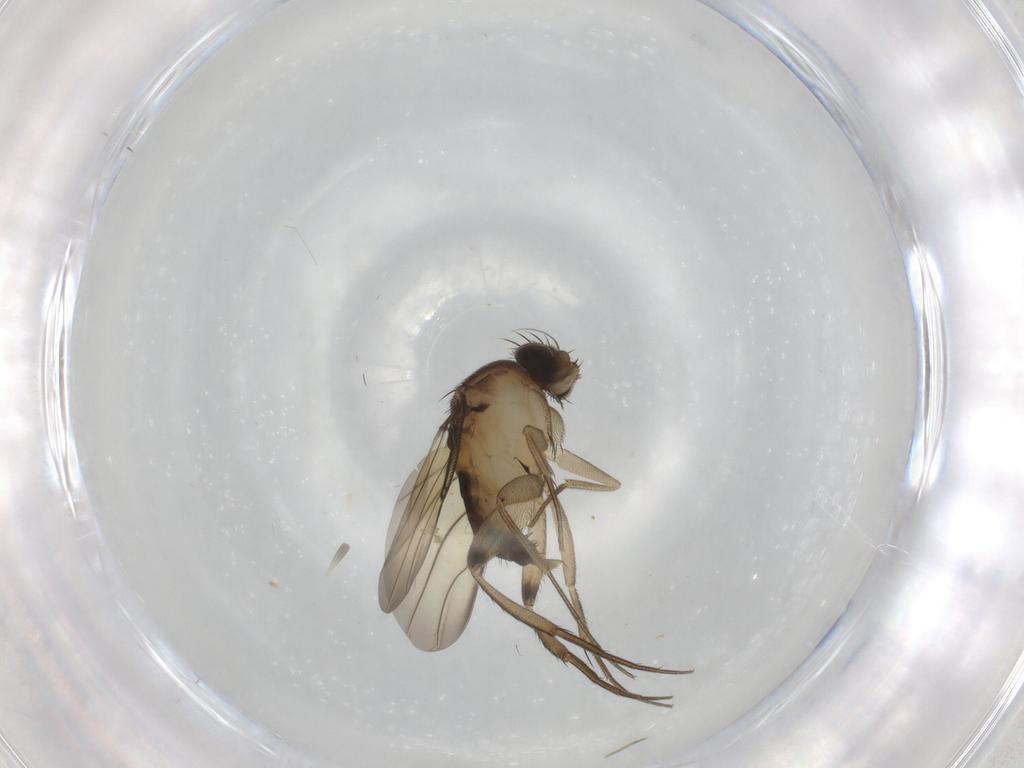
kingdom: Animalia
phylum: Arthropoda
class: Insecta
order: Diptera
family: Phoridae
